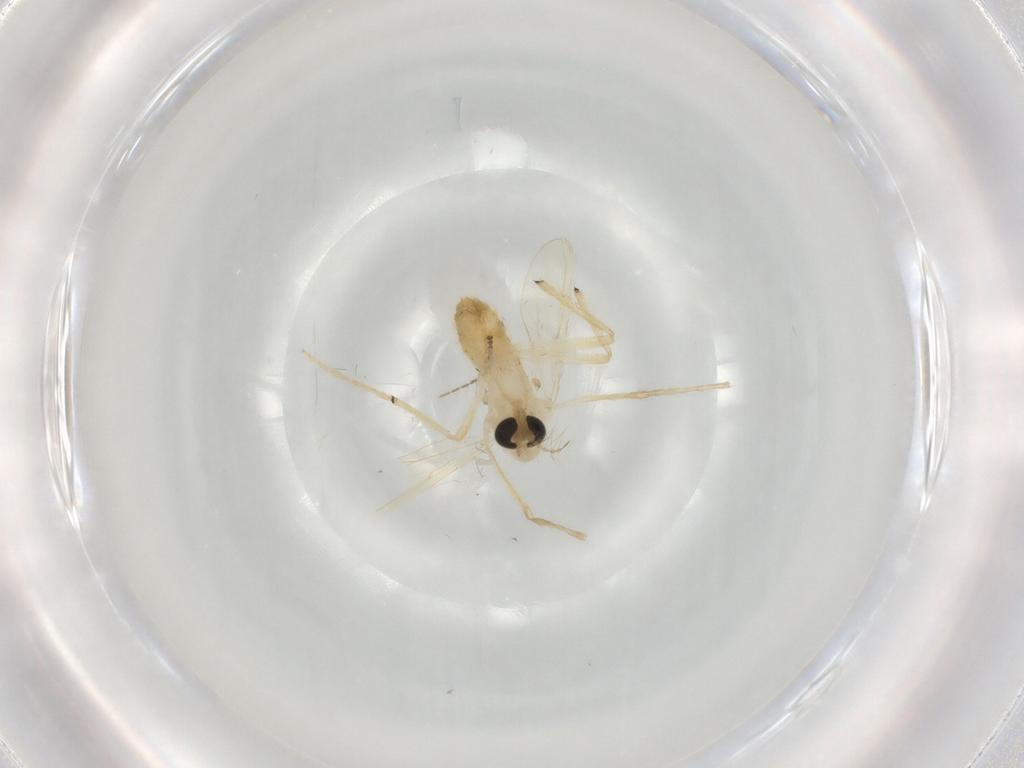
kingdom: Animalia
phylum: Arthropoda
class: Insecta
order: Diptera
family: Chironomidae
